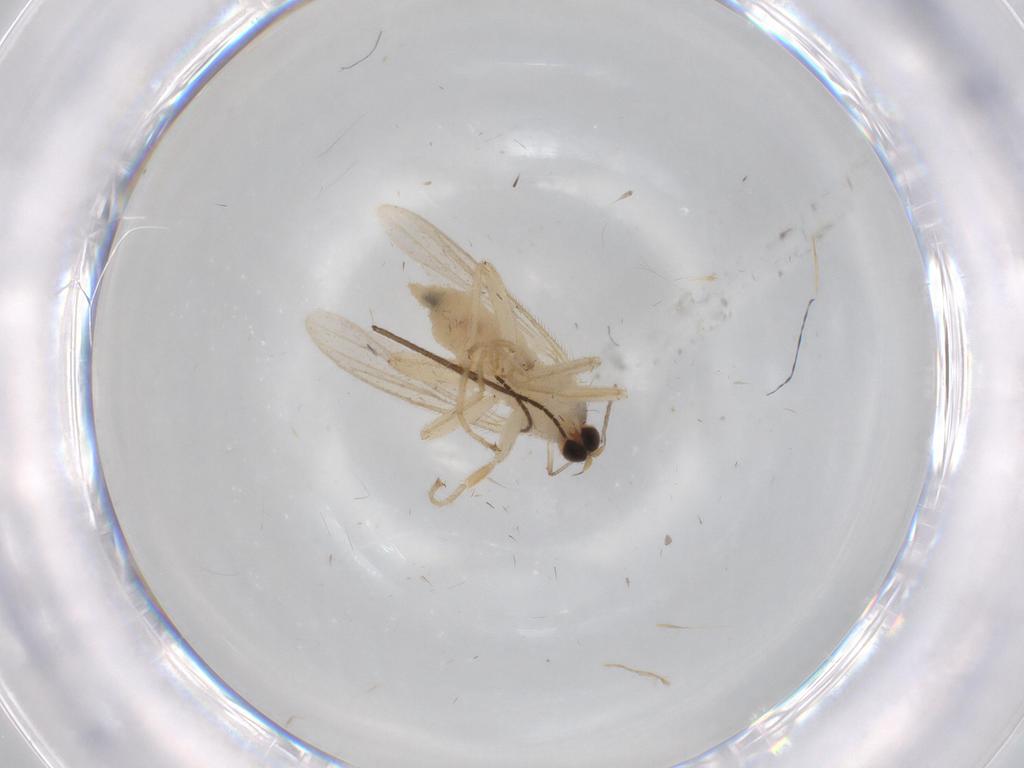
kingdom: Animalia
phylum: Arthropoda
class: Insecta
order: Diptera
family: Hybotidae
